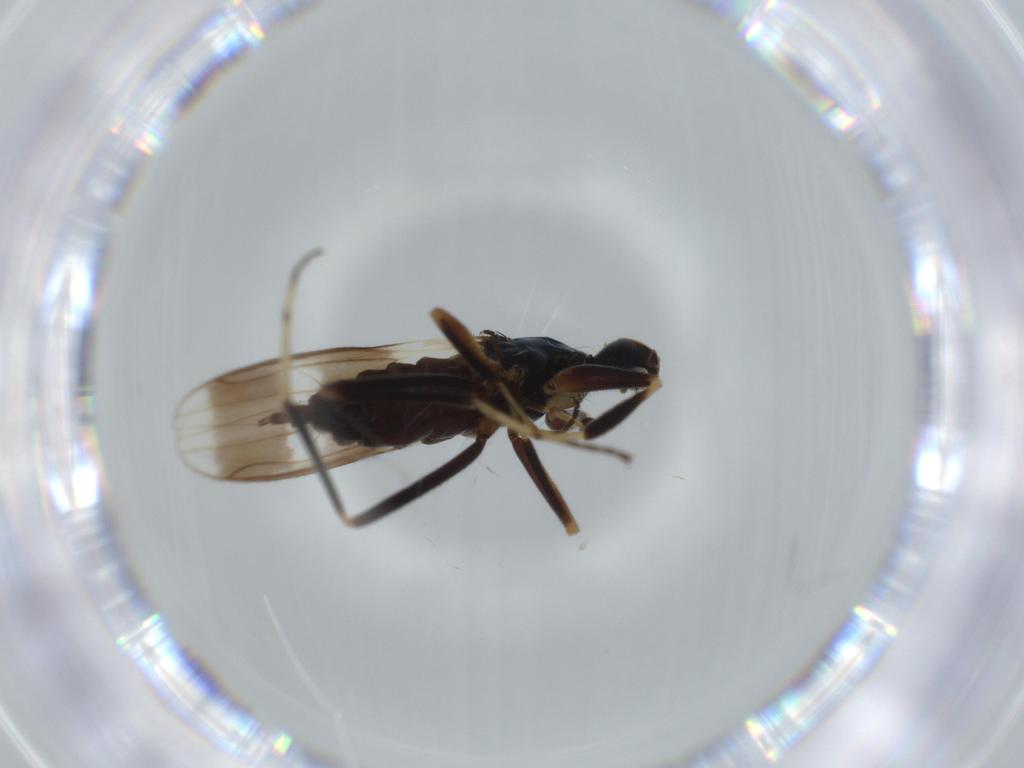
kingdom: Animalia
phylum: Arthropoda
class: Insecta
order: Diptera
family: Hybotidae
